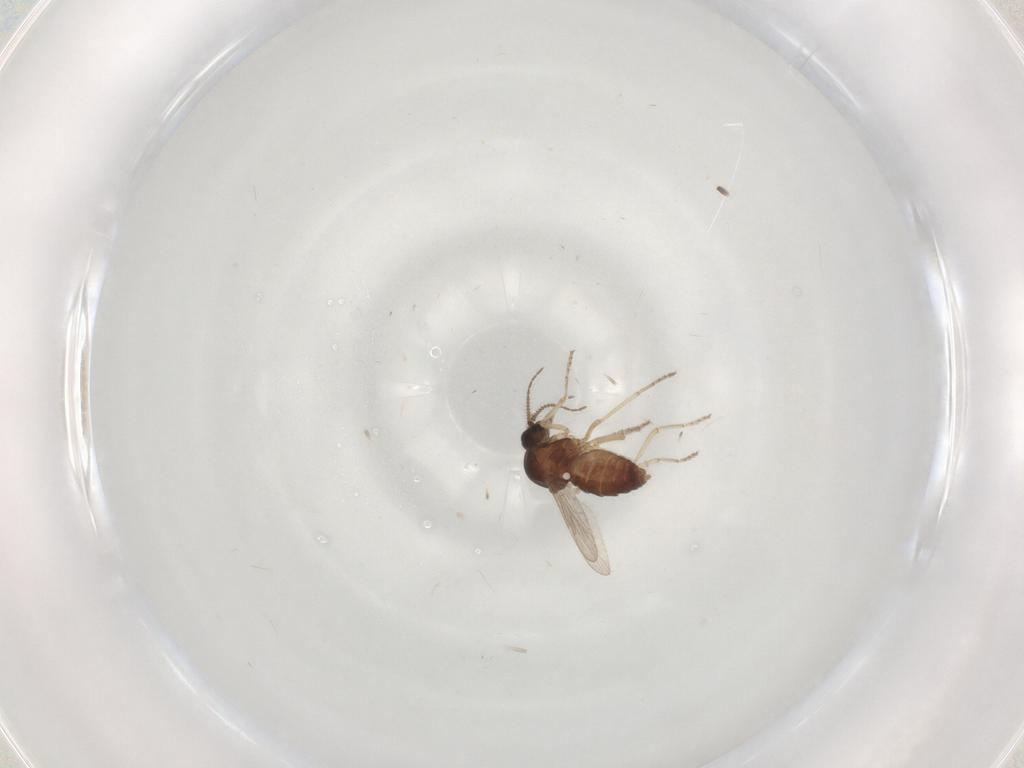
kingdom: Animalia
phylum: Arthropoda
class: Insecta
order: Diptera
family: Ceratopogonidae
